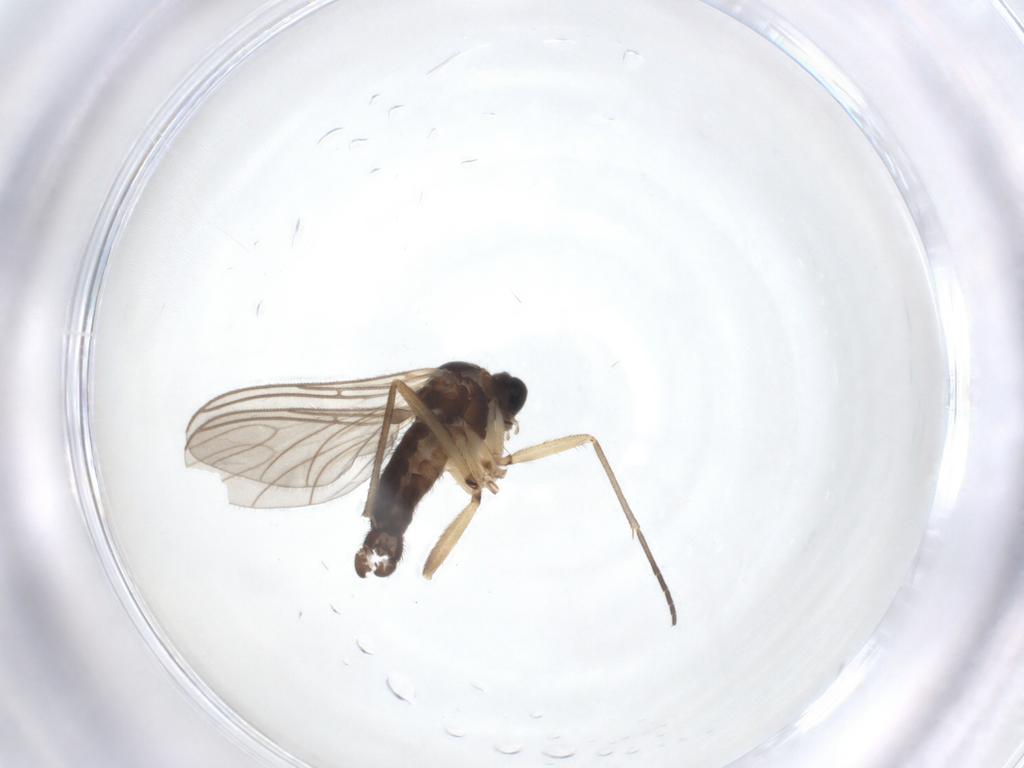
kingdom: Animalia
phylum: Arthropoda
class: Insecta
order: Diptera
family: Sciaridae
